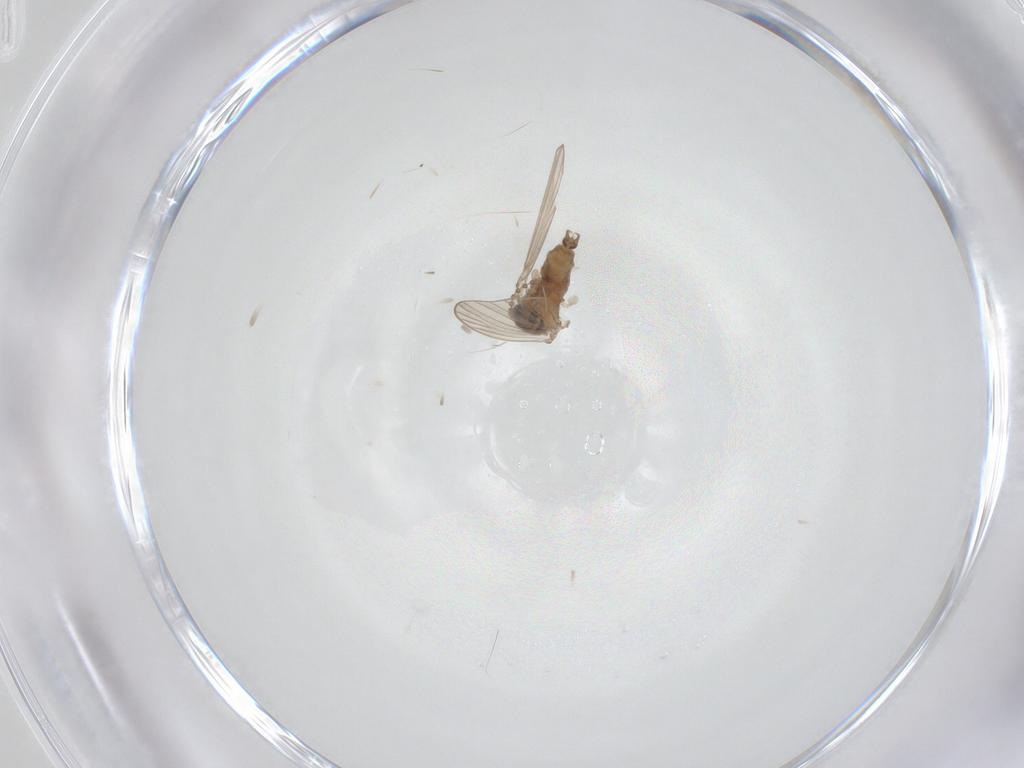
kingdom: Animalia
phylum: Arthropoda
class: Insecta
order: Diptera
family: Psychodidae
